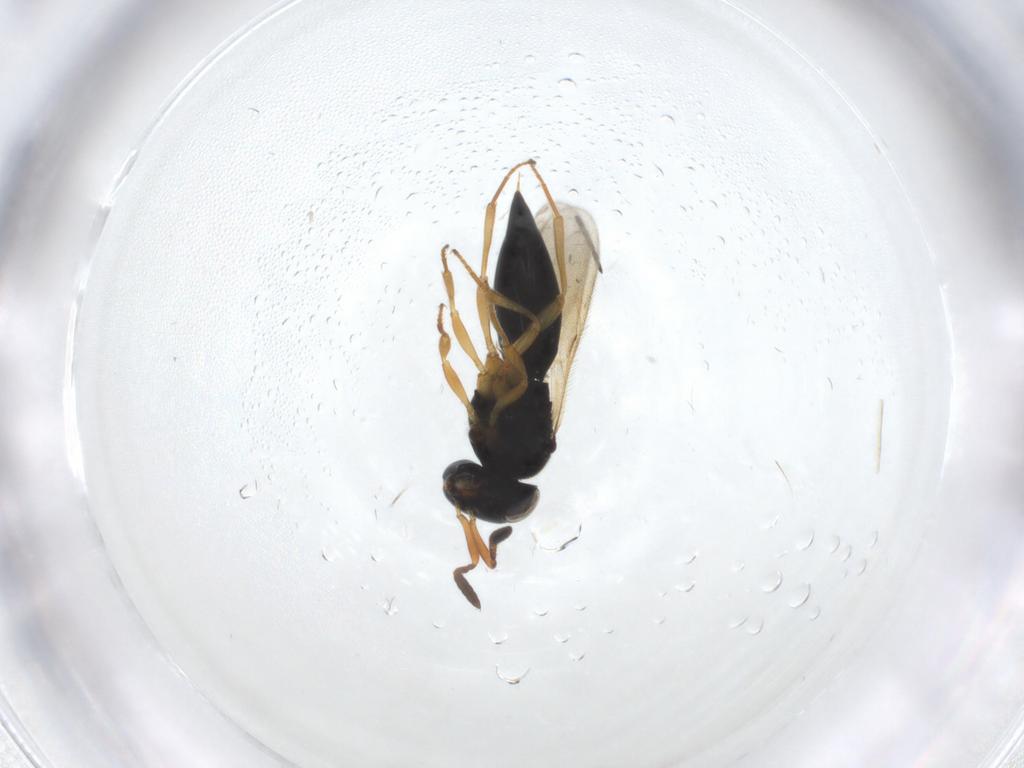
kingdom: Animalia
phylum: Arthropoda
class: Insecta
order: Hymenoptera
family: Scelionidae
